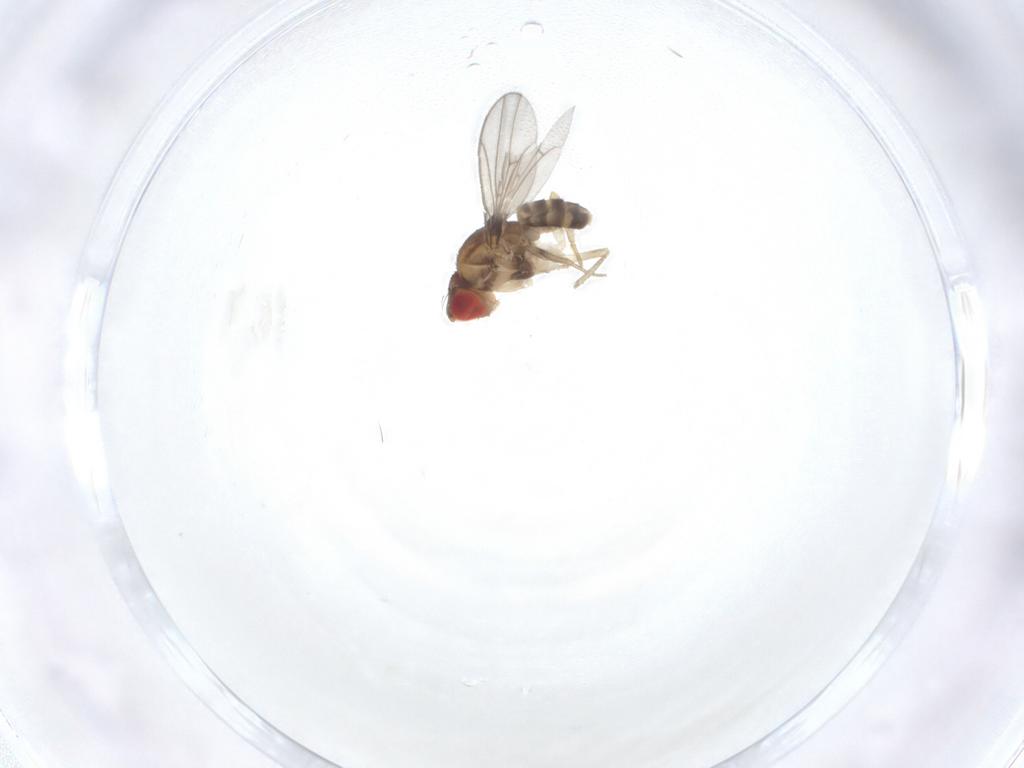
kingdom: Animalia
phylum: Arthropoda
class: Insecta
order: Diptera
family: Drosophilidae
